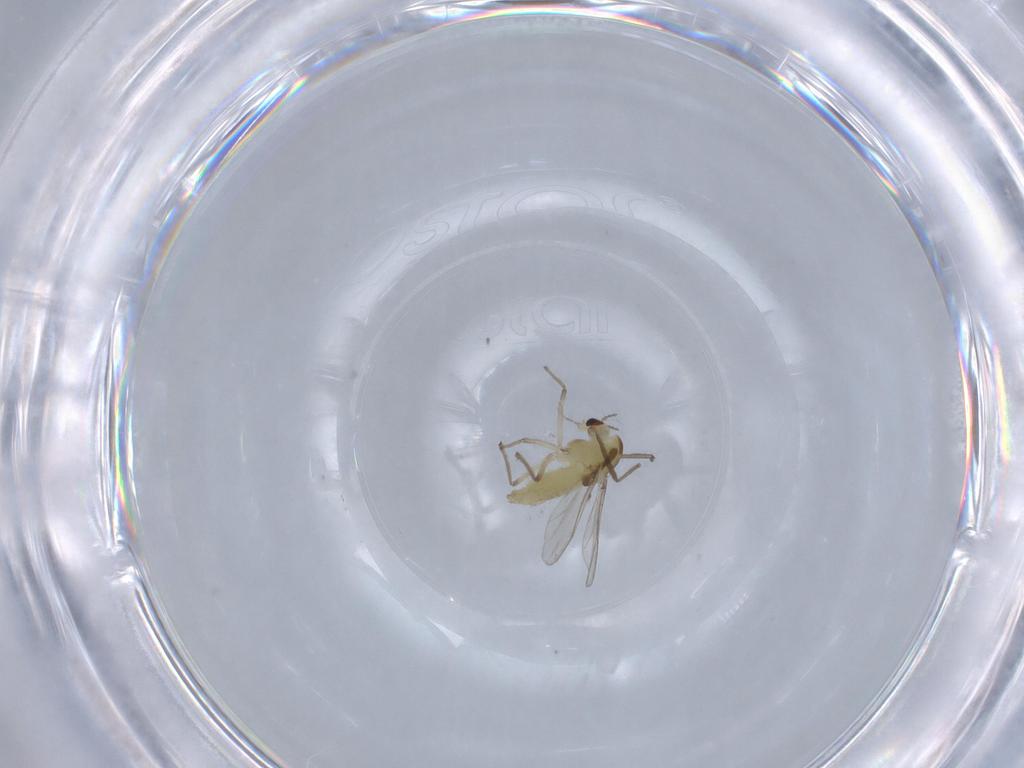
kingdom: Animalia
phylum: Arthropoda
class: Insecta
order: Diptera
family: Chironomidae
